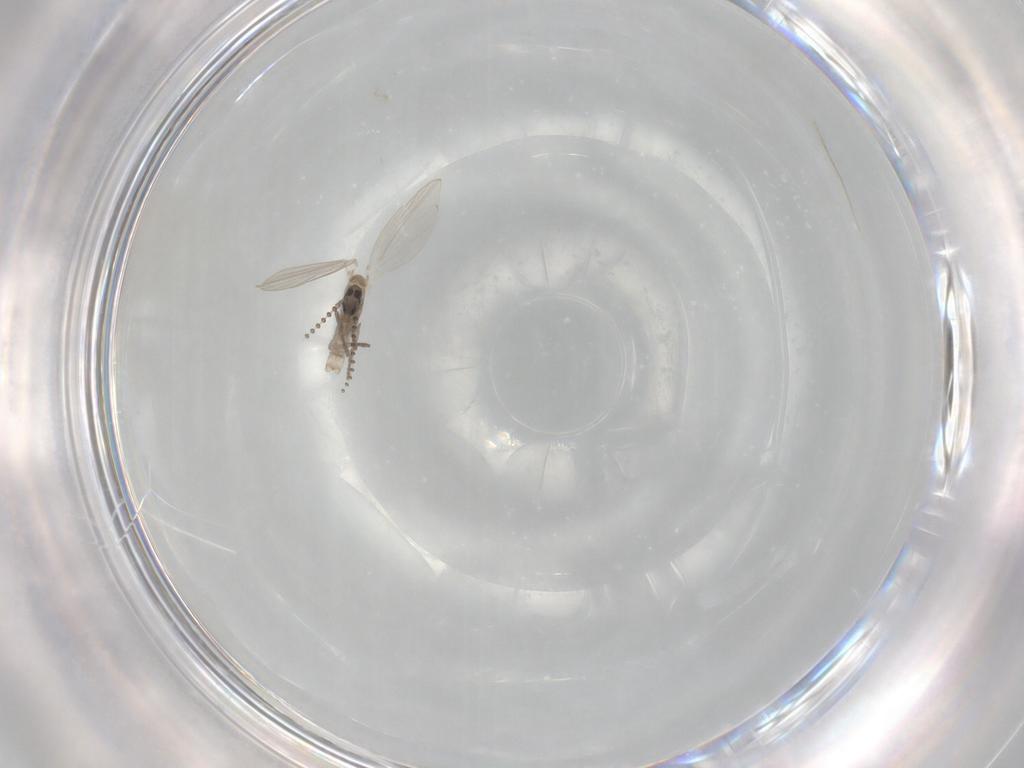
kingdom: Animalia
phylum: Arthropoda
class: Insecta
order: Diptera
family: Psychodidae
